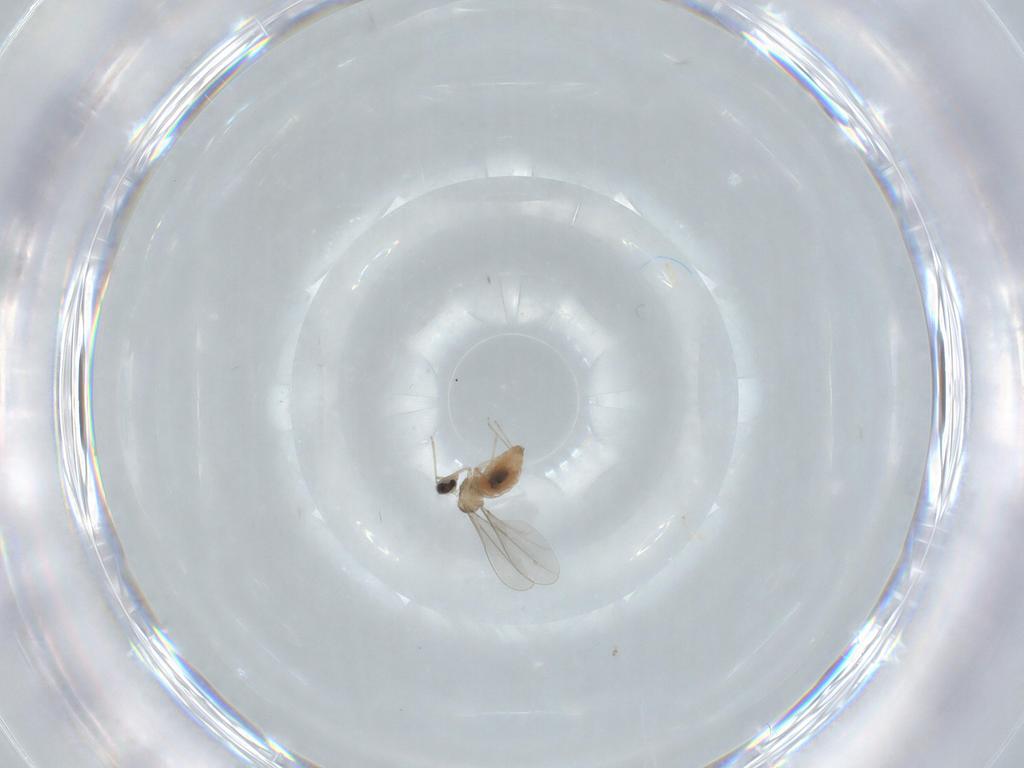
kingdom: Animalia
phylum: Arthropoda
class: Insecta
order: Diptera
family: Cecidomyiidae
